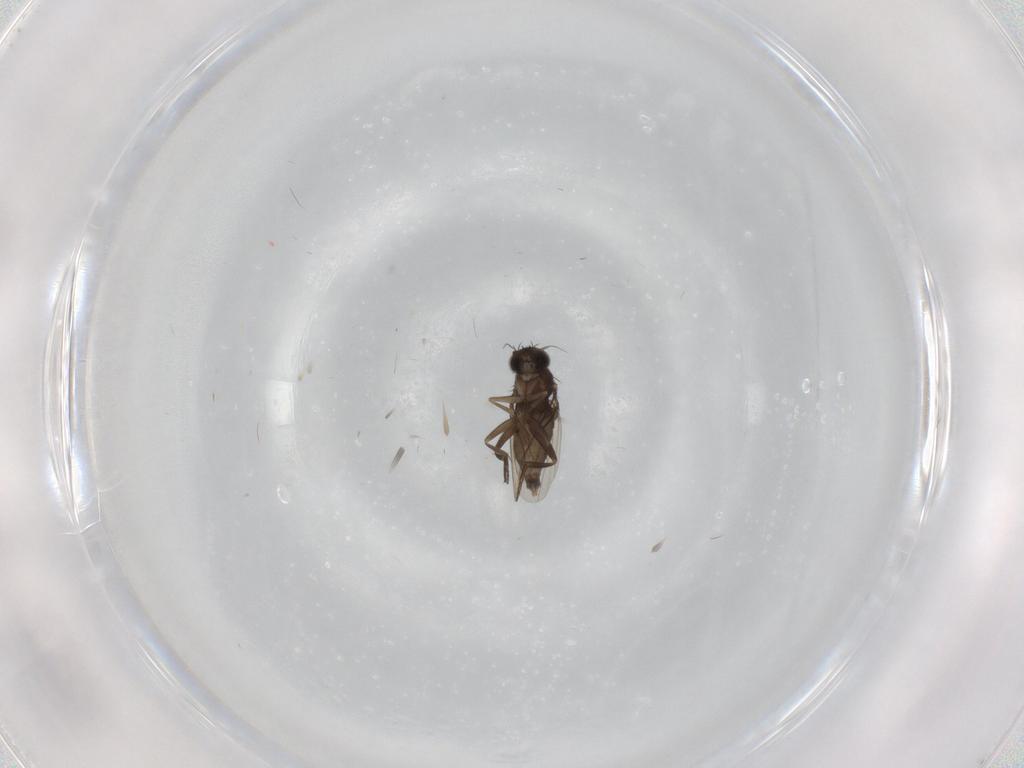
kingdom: Animalia
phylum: Arthropoda
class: Insecta
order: Diptera
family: Phoridae
